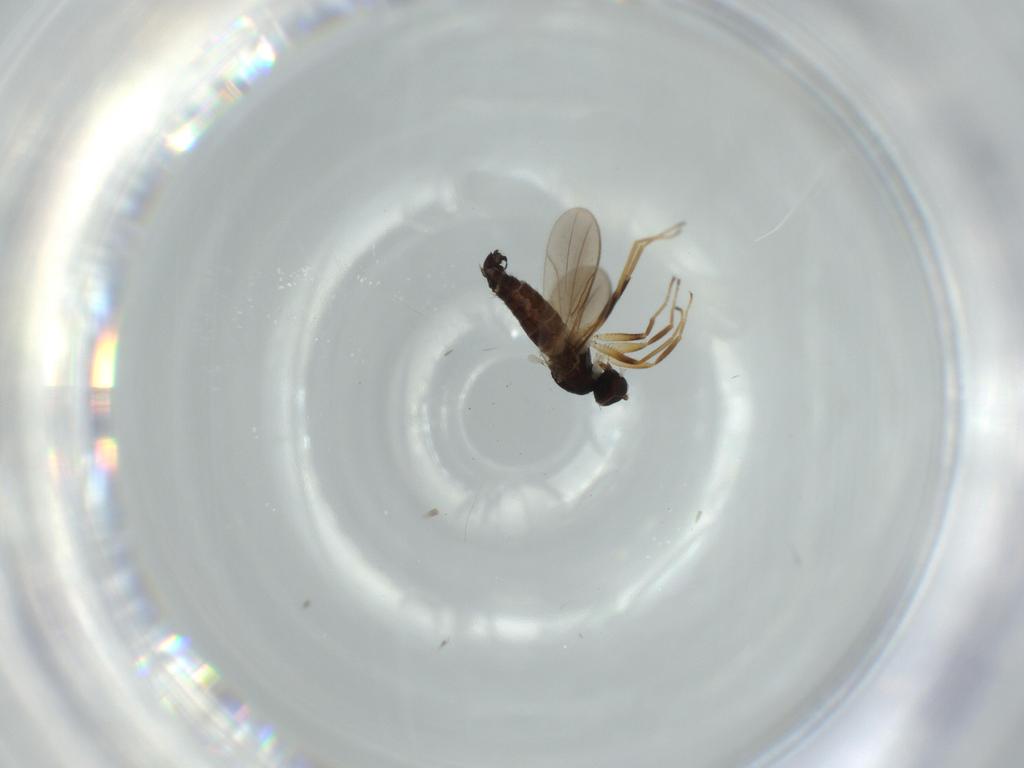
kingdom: Animalia
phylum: Arthropoda
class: Insecta
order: Diptera
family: Hybotidae
